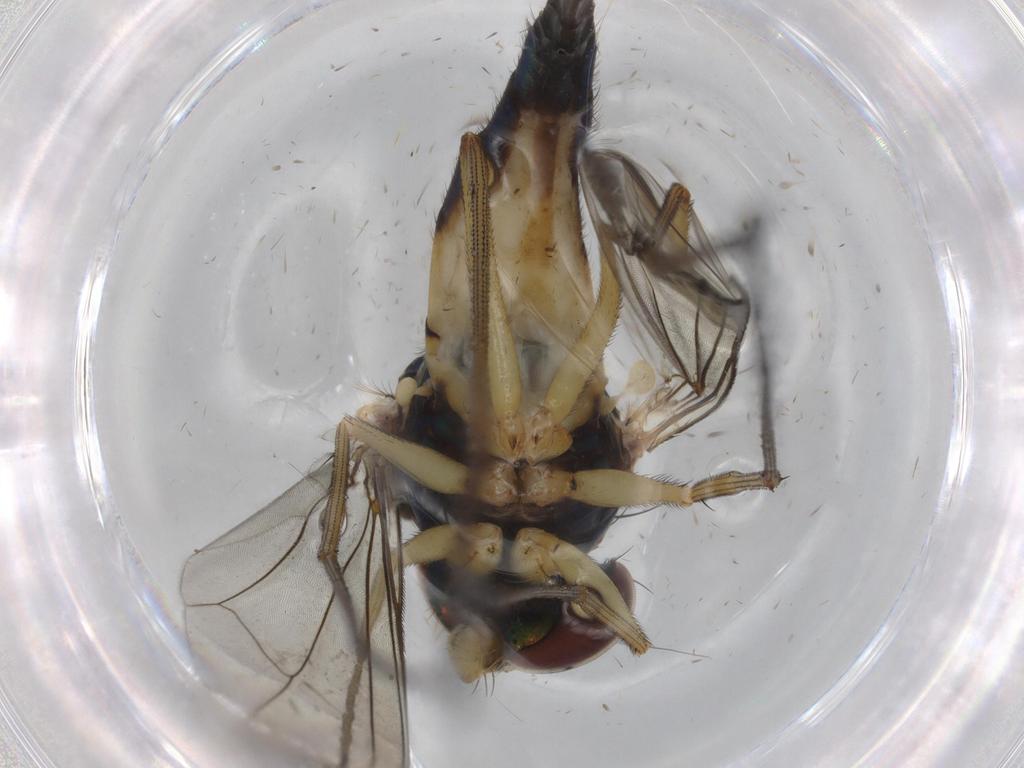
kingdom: Animalia
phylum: Arthropoda
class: Insecta
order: Diptera
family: Dolichopodidae
